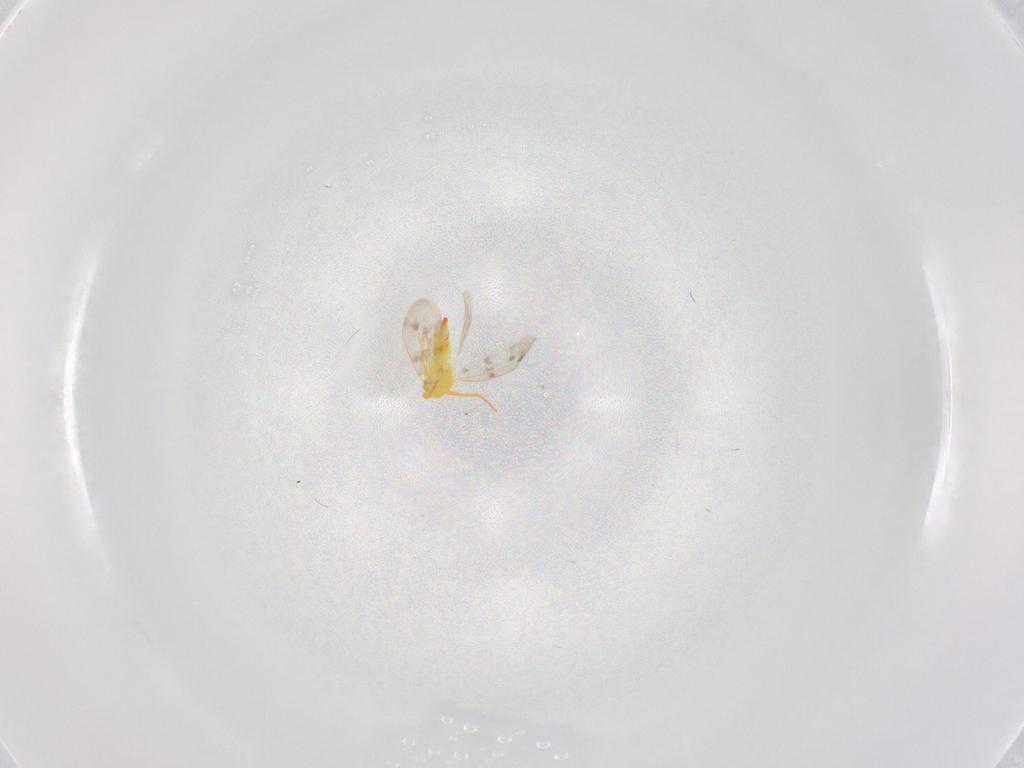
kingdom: Animalia
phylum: Arthropoda
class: Insecta
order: Hemiptera
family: Aleyrodidae
